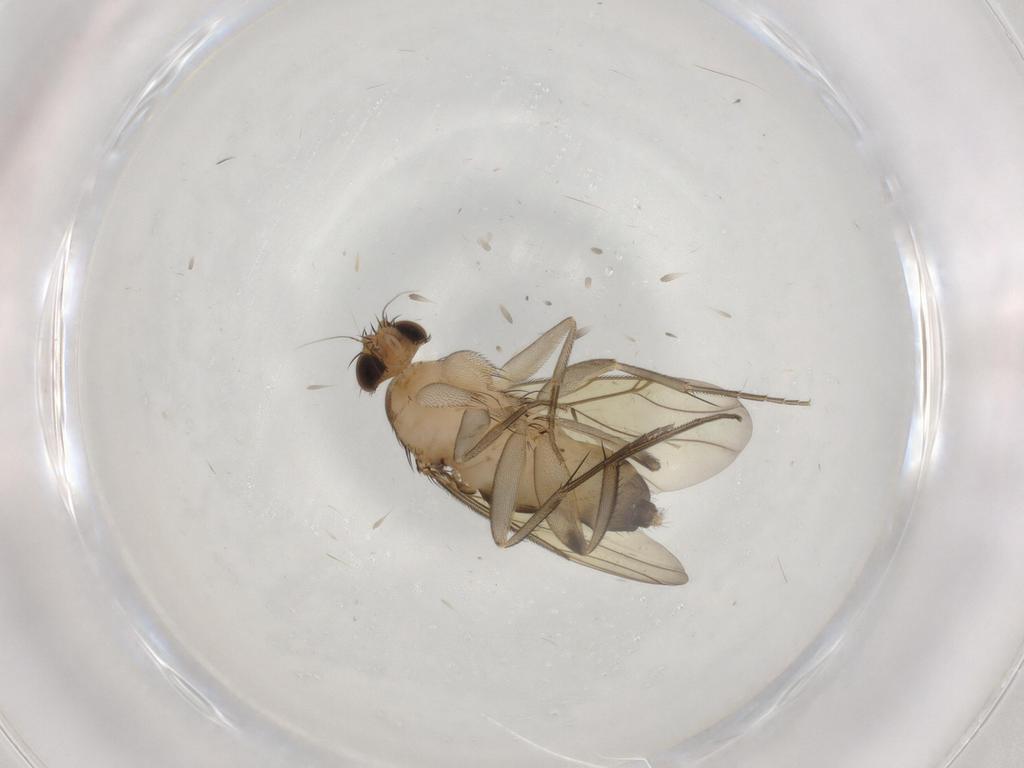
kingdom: Animalia
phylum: Arthropoda
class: Insecta
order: Diptera
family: Phoridae
